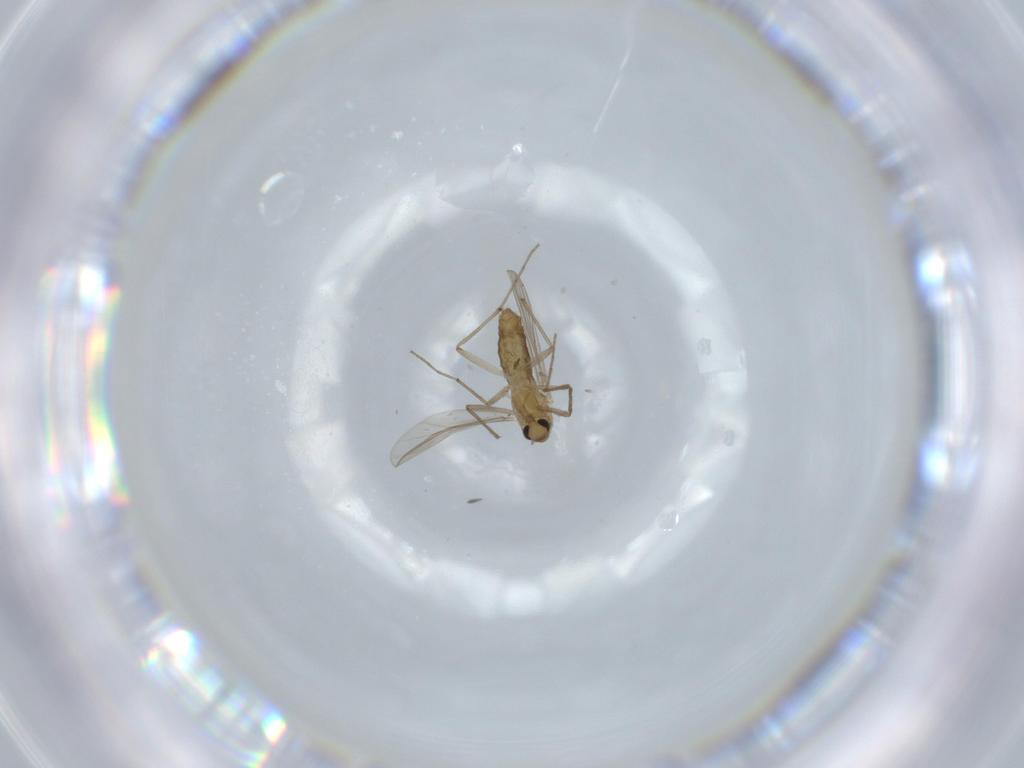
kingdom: Animalia
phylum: Arthropoda
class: Insecta
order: Diptera
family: Chironomidae
